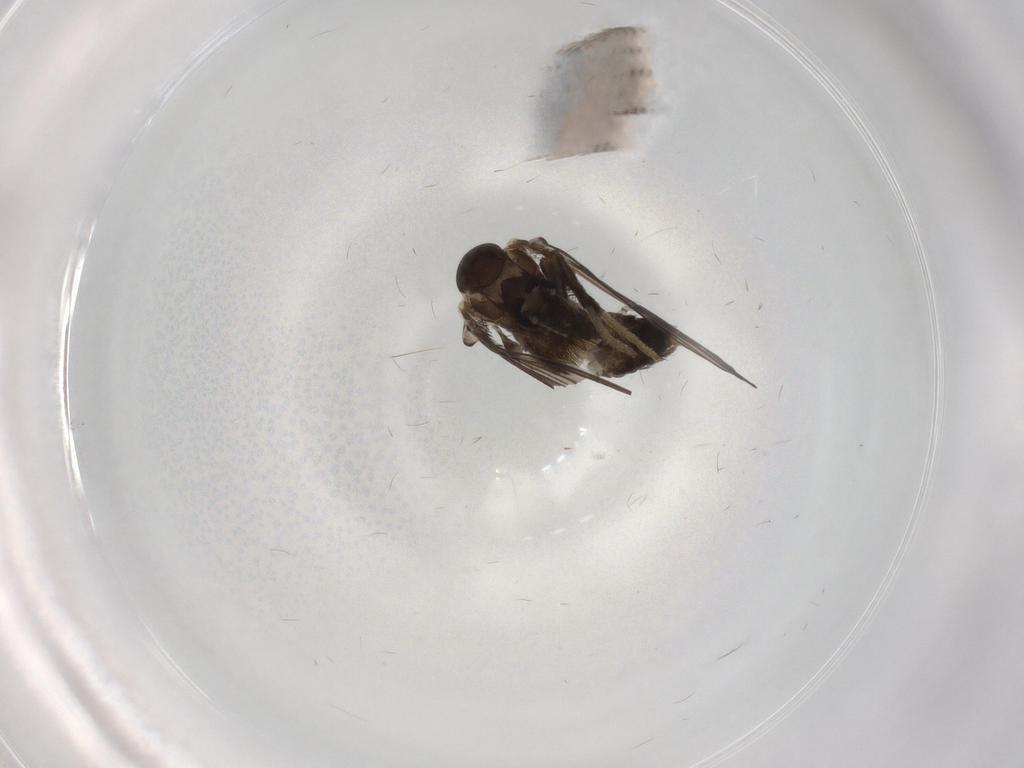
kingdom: Animalia
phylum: Arthropoda
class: Insecta
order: Diptera
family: Psychodidae
